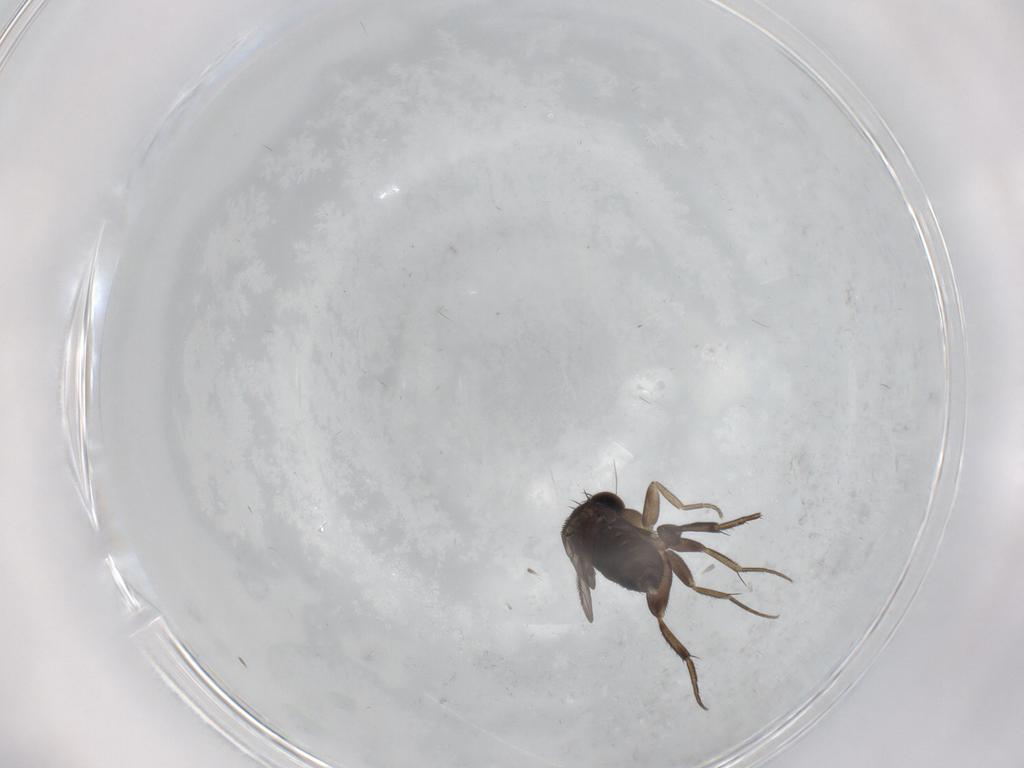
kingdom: Animalia
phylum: Arthropoda
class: Insecta
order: Diptera
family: Phoridae
